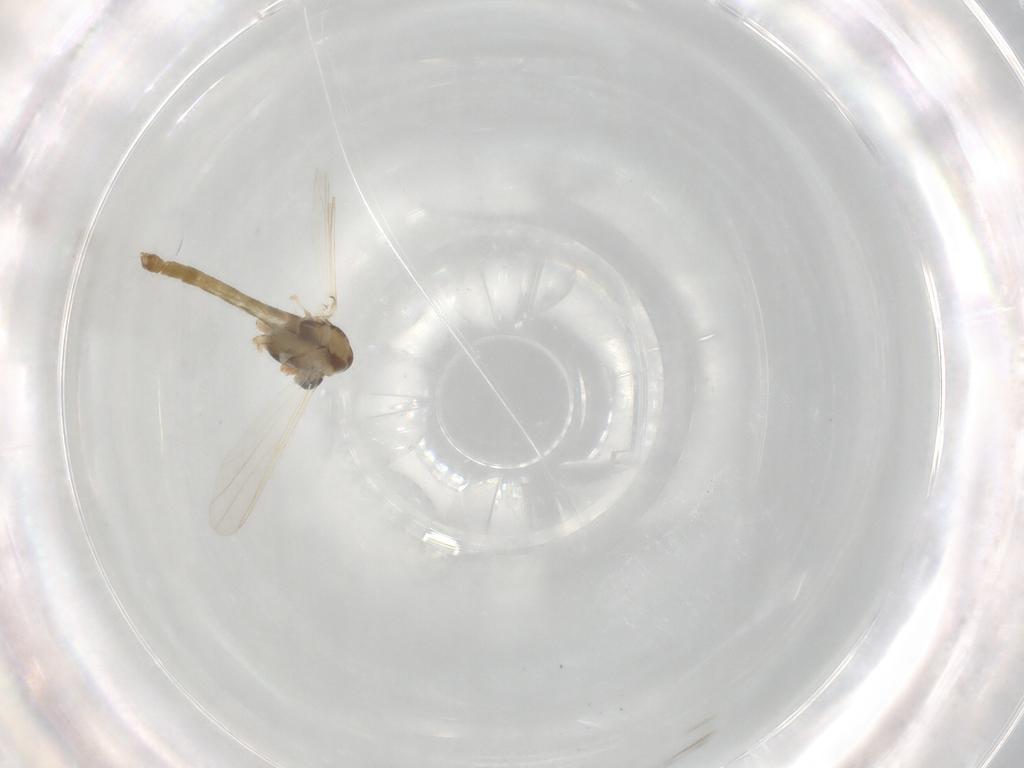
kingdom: Animalia
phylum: Arthropoda
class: Insecta
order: Diptera
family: Chironomidae
